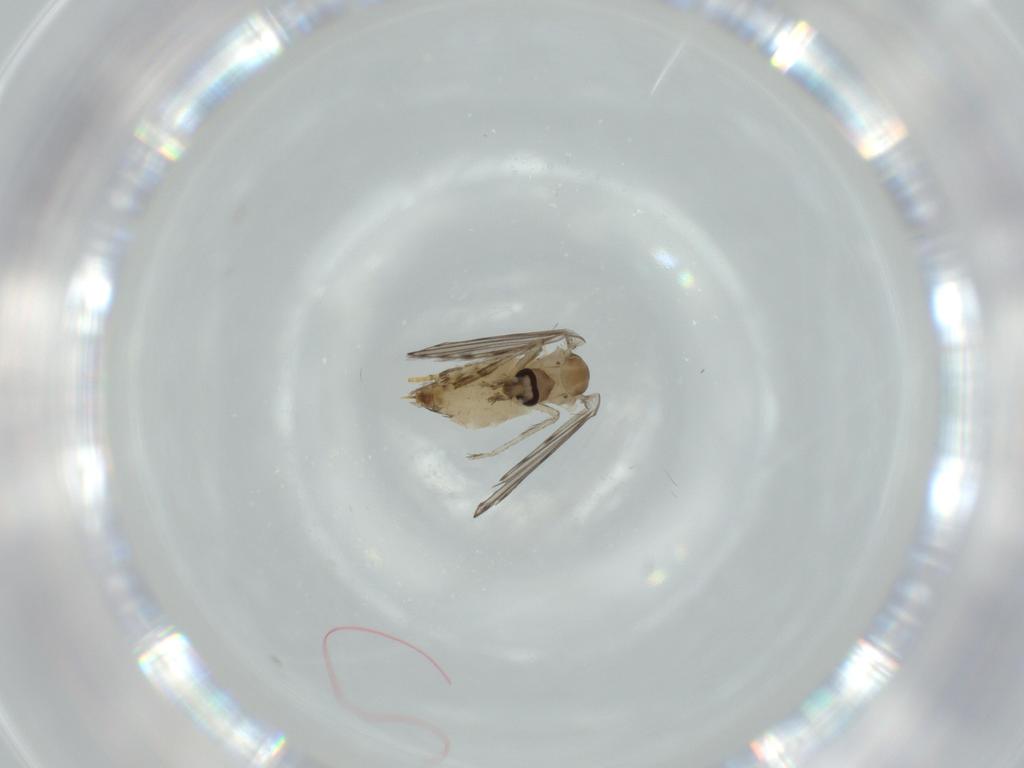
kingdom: Animalia
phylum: Arthropoda
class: Insecta
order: Diptera
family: Psychodidae
